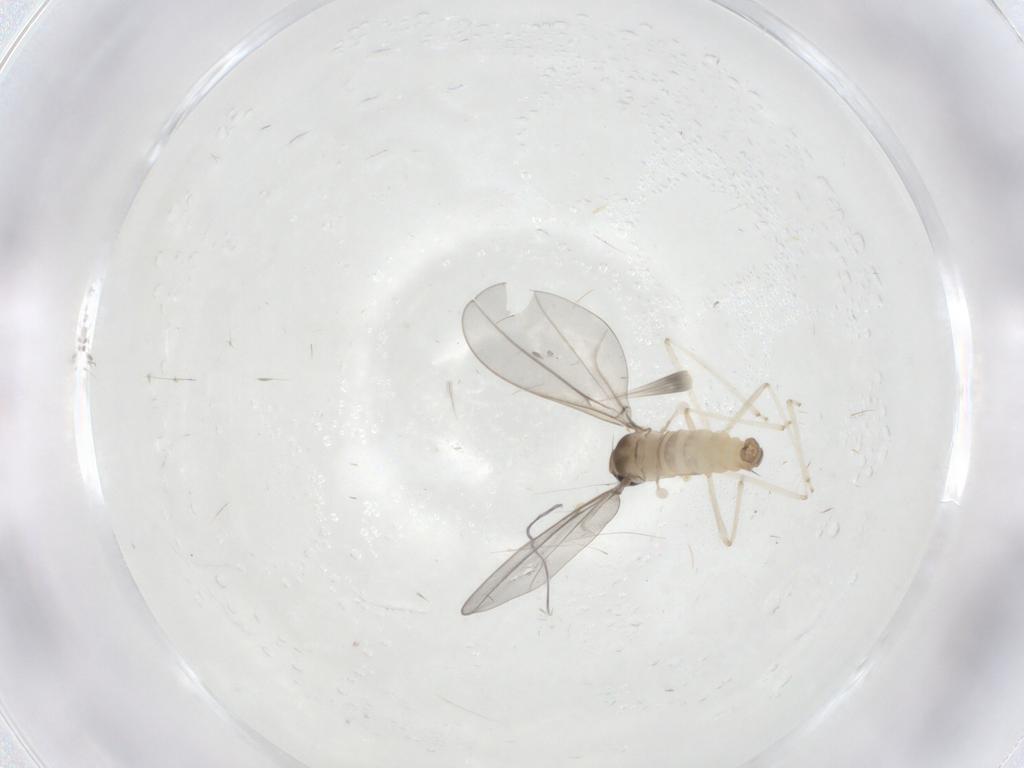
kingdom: Animalia
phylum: Arthropoda
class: Insecta
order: Diptera
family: Cecidomyiidae
